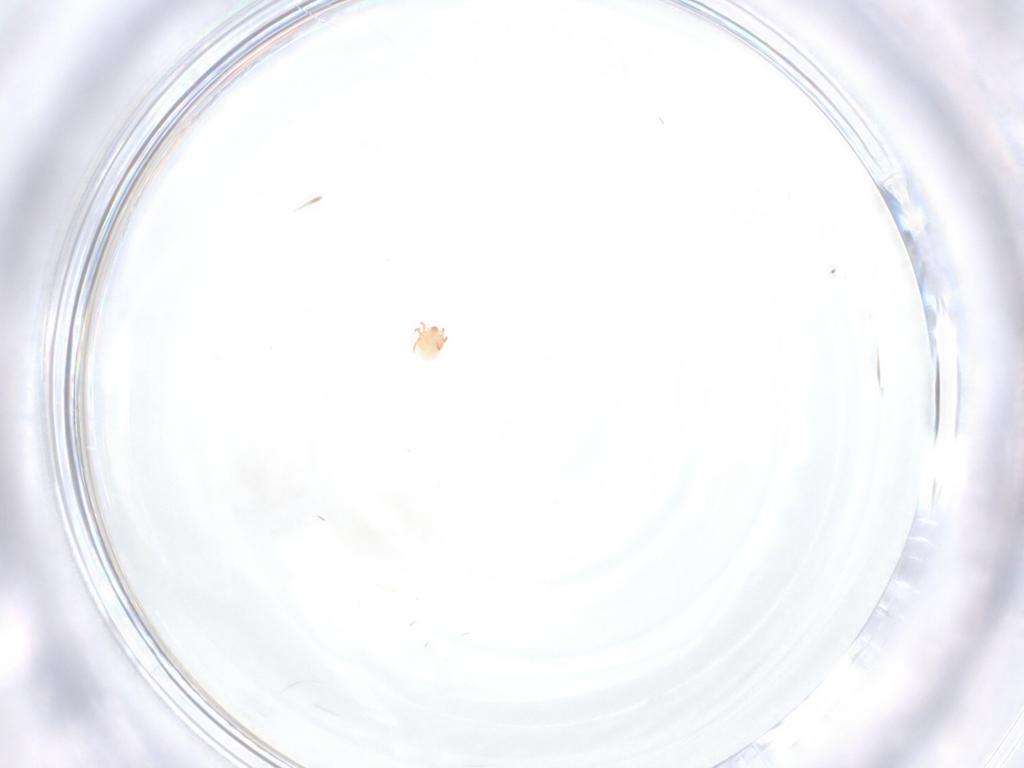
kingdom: Animalia
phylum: Arthropoda
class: Arachnida
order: Trombidiformes
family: Limnesiidae
